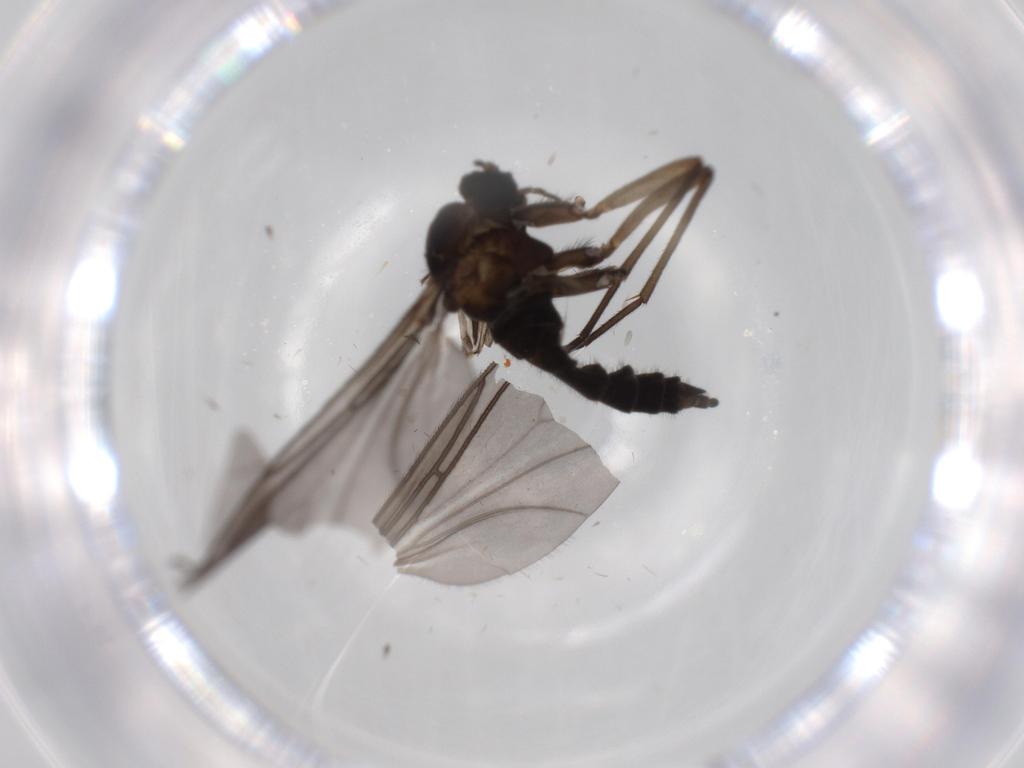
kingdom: Animalia
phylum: Arthropoda
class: Insecta
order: Diptera
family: Sciaridae
